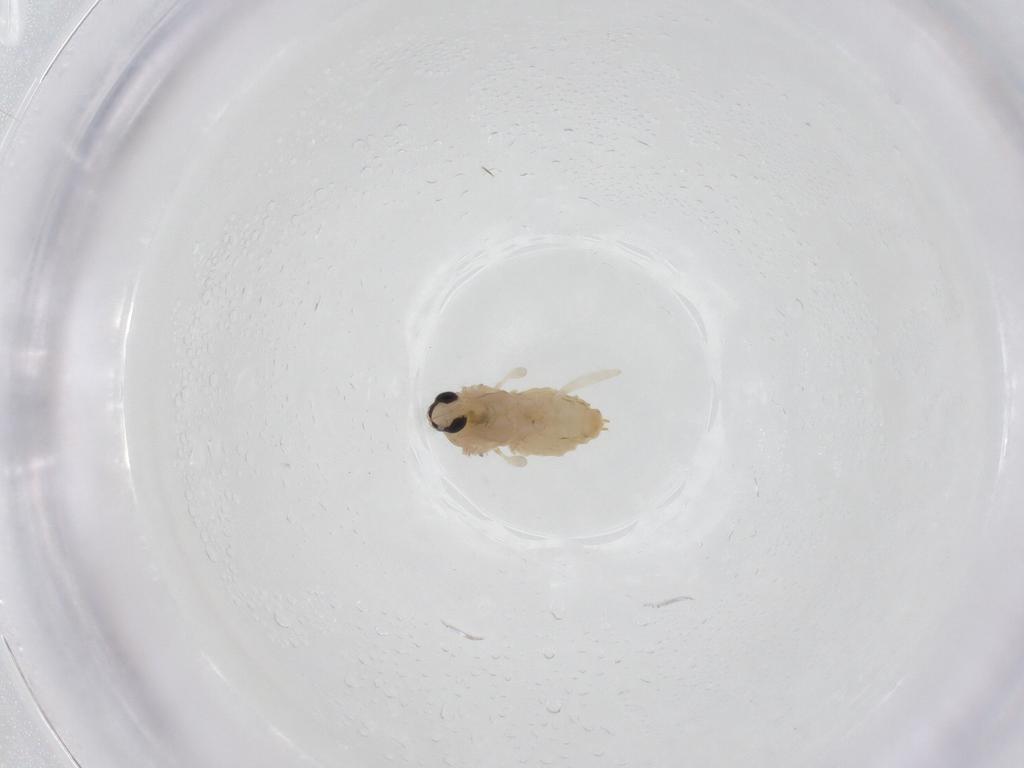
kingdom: Animalia
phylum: Arthropoda
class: Insecta
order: Diptera
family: Cecidomyiidae
